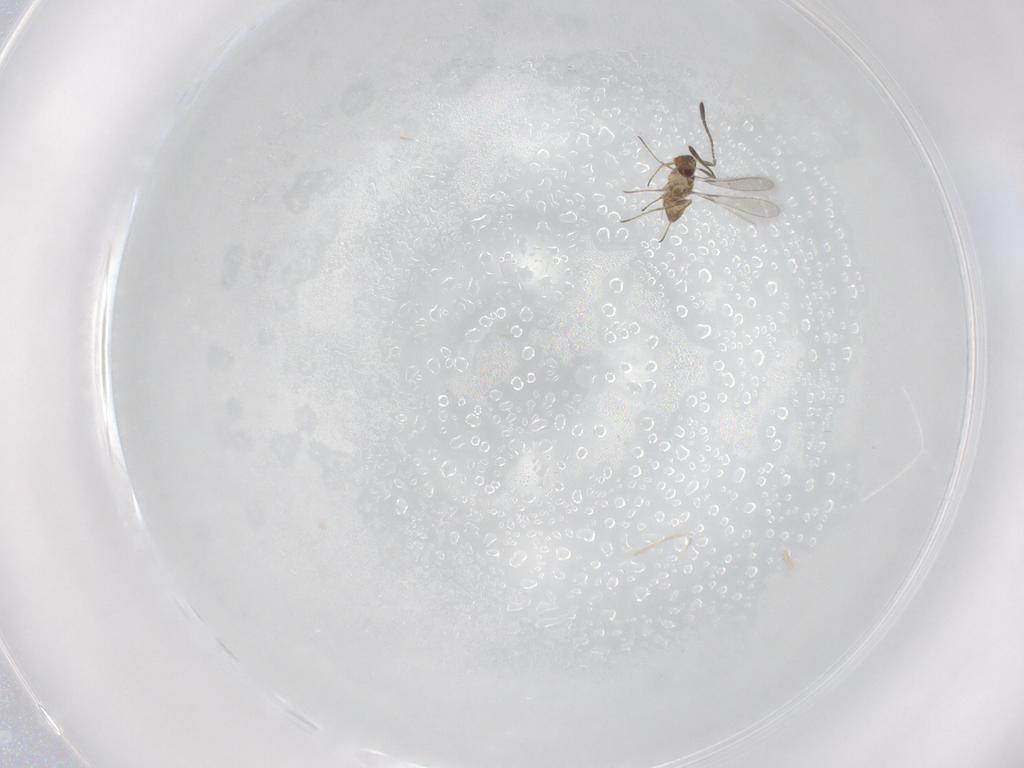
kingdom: Animalia
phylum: Arthropoda
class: Insecta
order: Hymenoptera
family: Mymaridae
